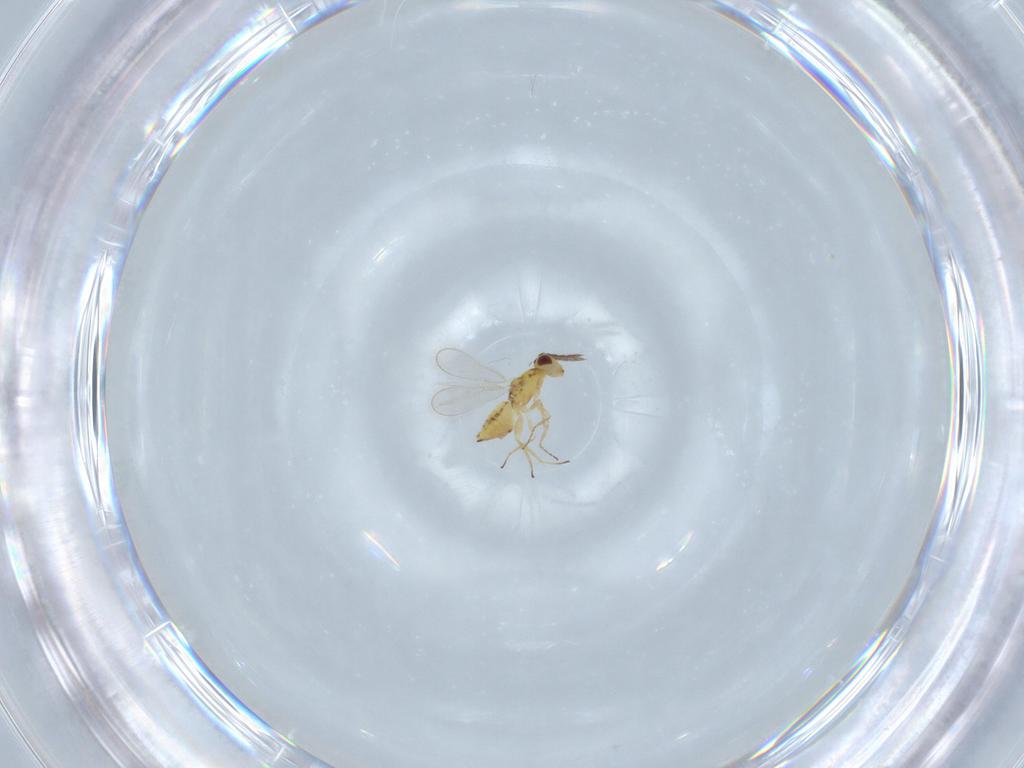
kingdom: Animalia
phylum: Arthropoda
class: Insecta
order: Hymenoptera
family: Eulophidae
